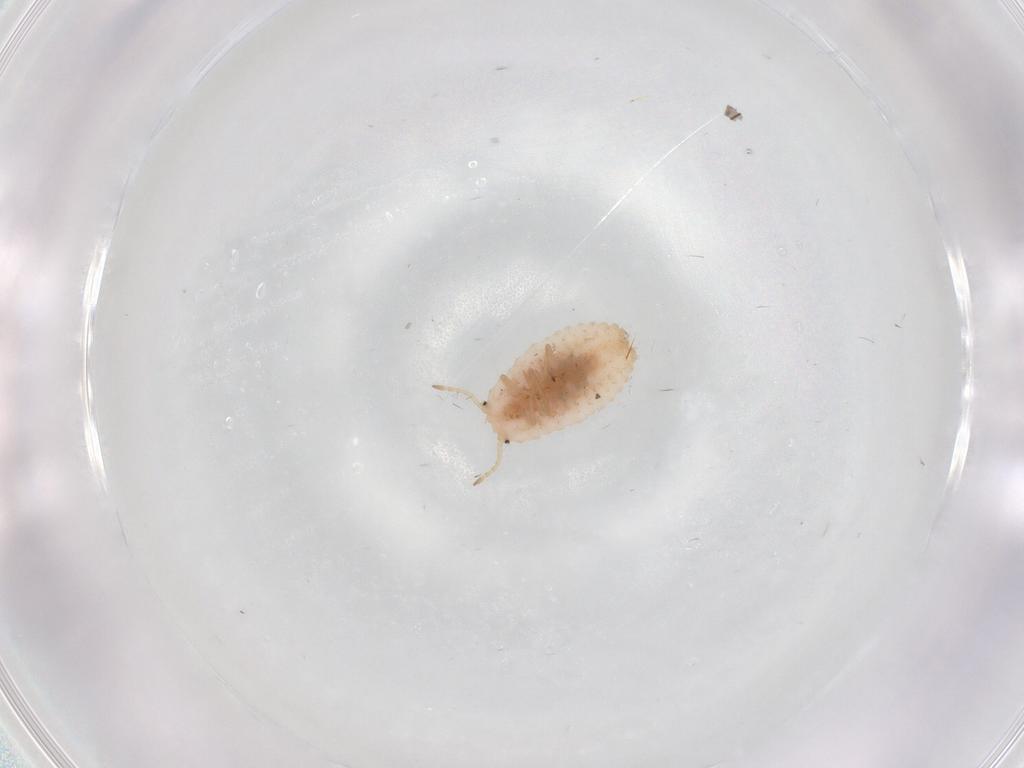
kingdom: Animalia
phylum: Arthropoda
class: Insecta
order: Hemiptera
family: Coccoidea_incertae_sedis
